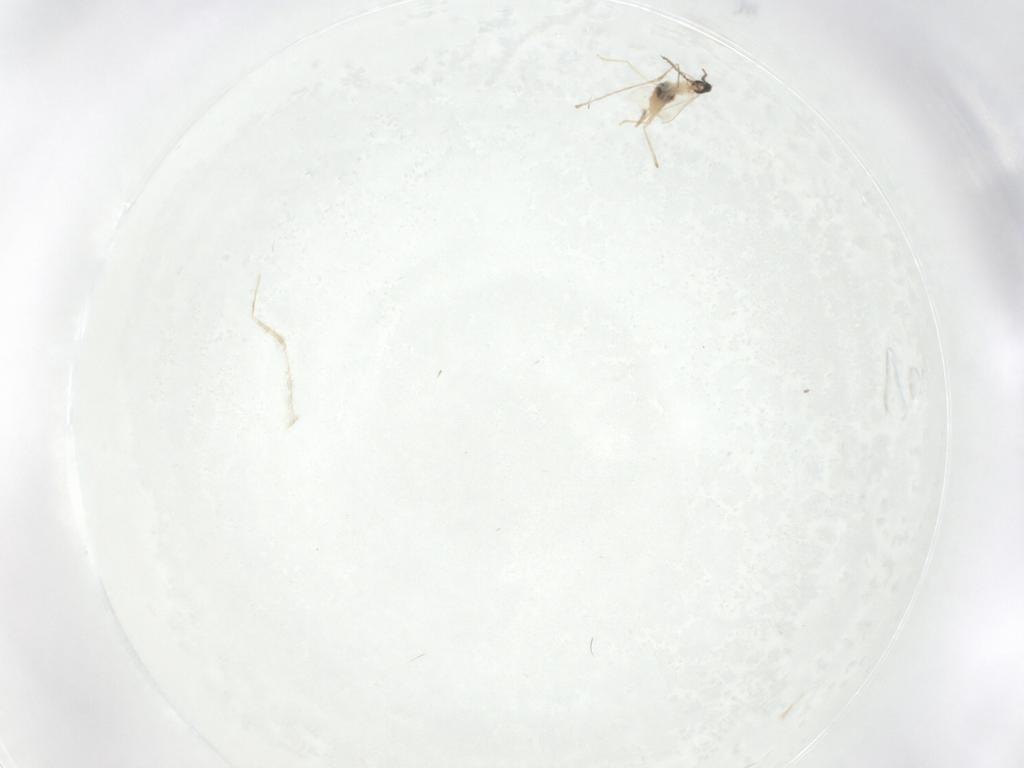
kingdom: Animalia
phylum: Arthropoda
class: Insecta
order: Diptera
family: Cecidomyiidae
